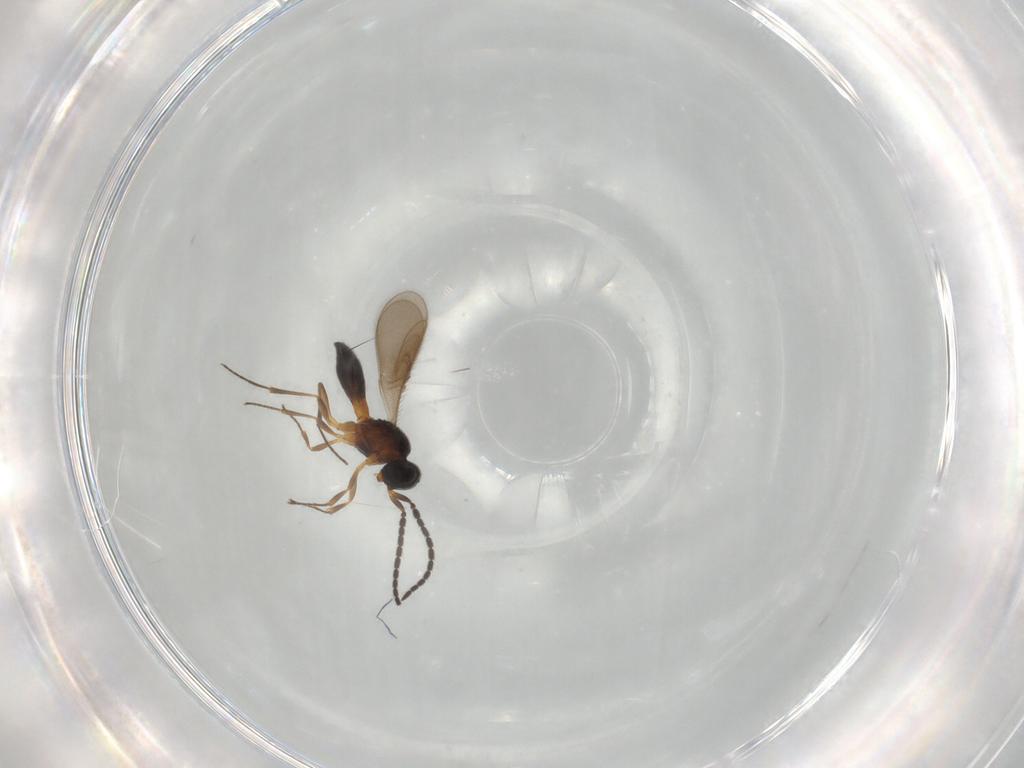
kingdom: Animalia
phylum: Arthropoda
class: Insecta
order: Hymenoptera
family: Scelionidae
